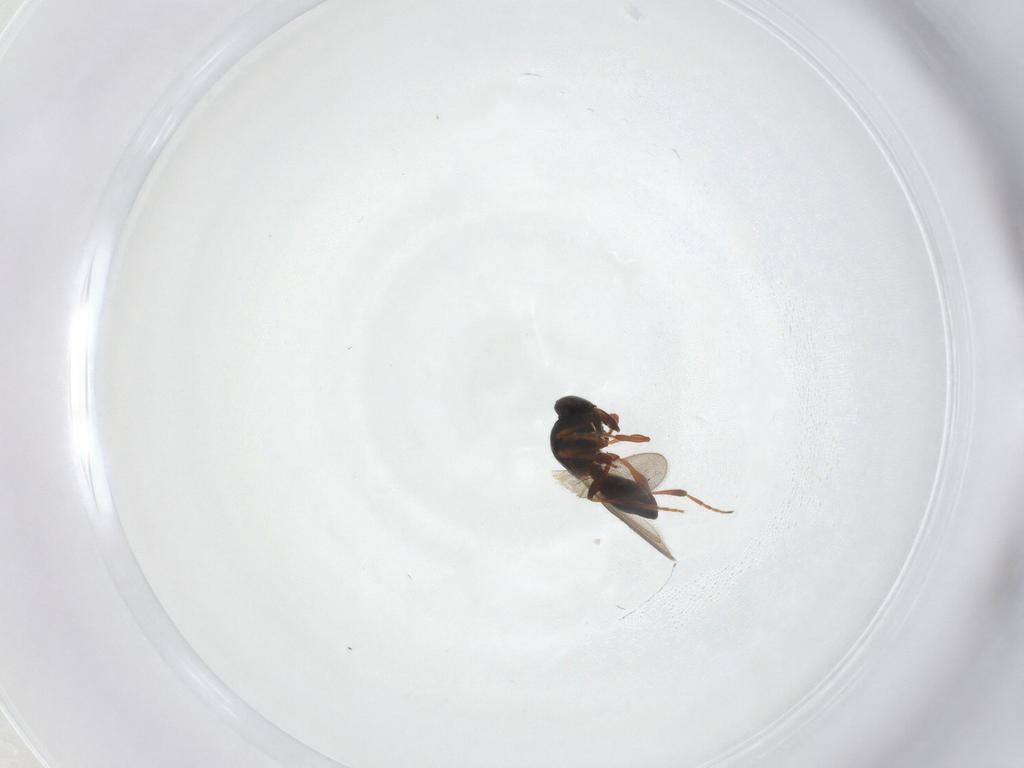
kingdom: Animalia
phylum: Arthropoda
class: Insecta
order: Hymenoptera
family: Platygastridae
